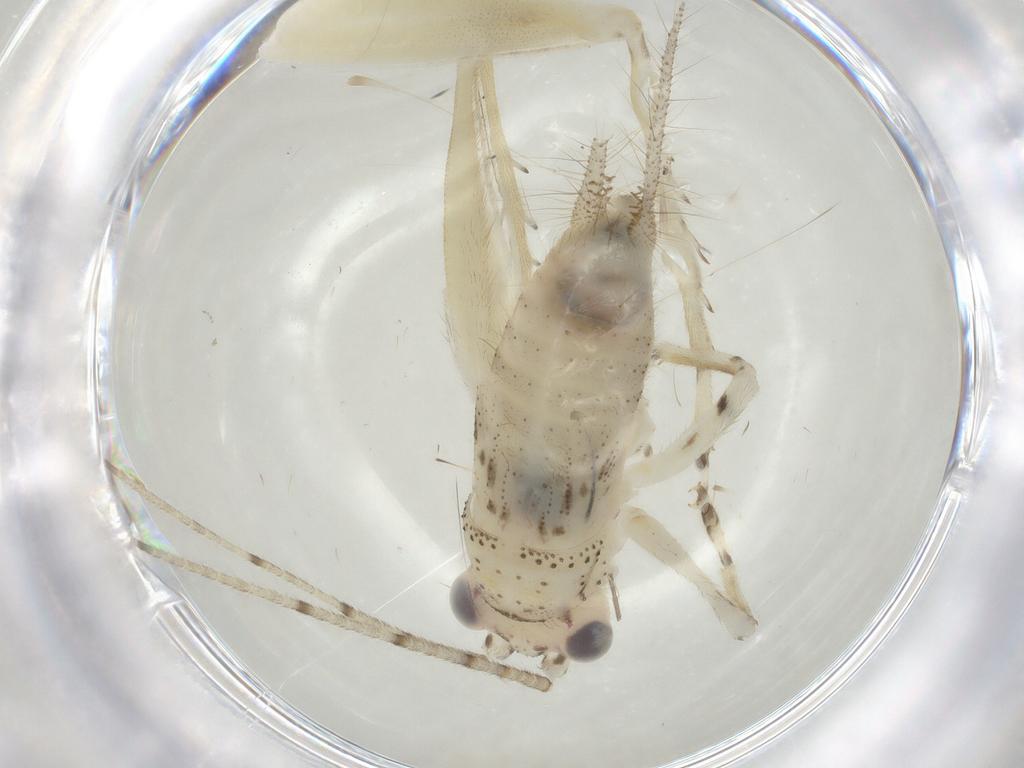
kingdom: Animalia
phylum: Arthropoda
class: Insecta
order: Orthoptera
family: Trigonidiidae
